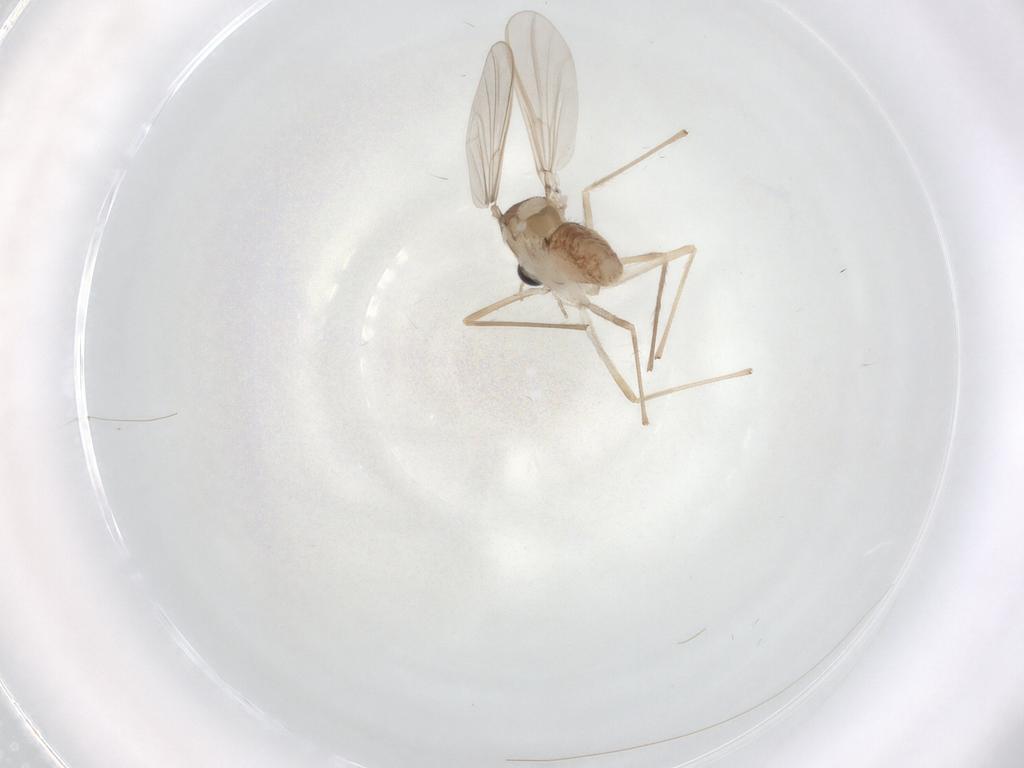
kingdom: Animalia
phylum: Arthropoda
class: Insecta
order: Diptera
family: Chironomidae
